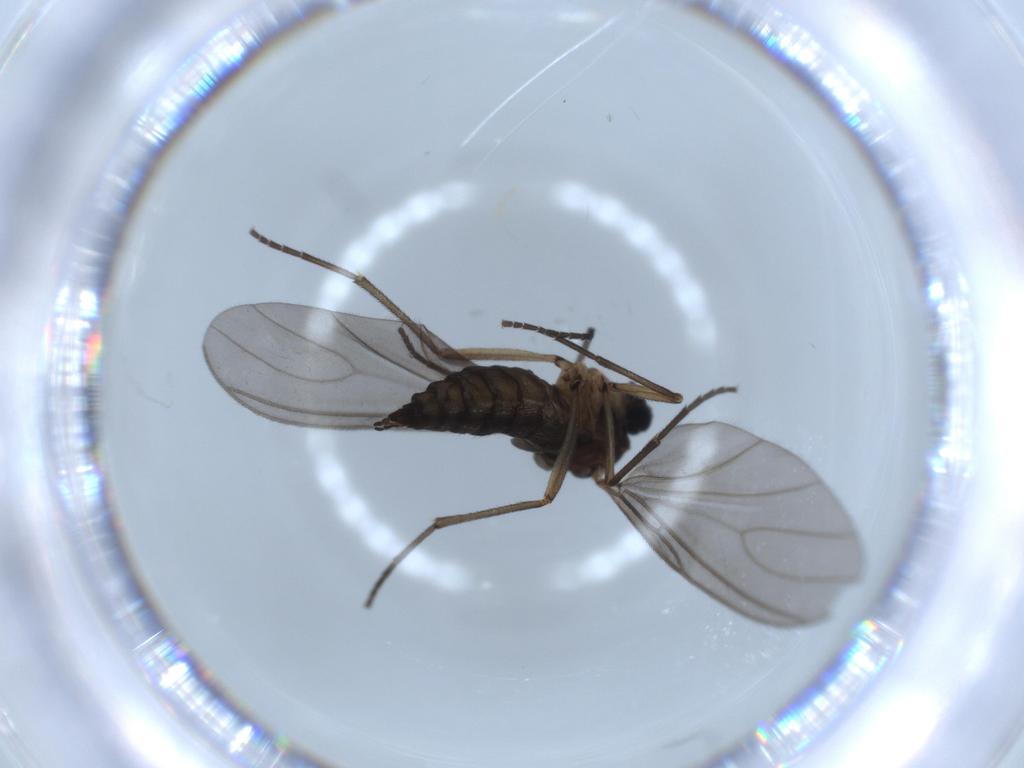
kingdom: Animalia
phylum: Arthropoda
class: Insecta
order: Diptera
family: Sciaridae
